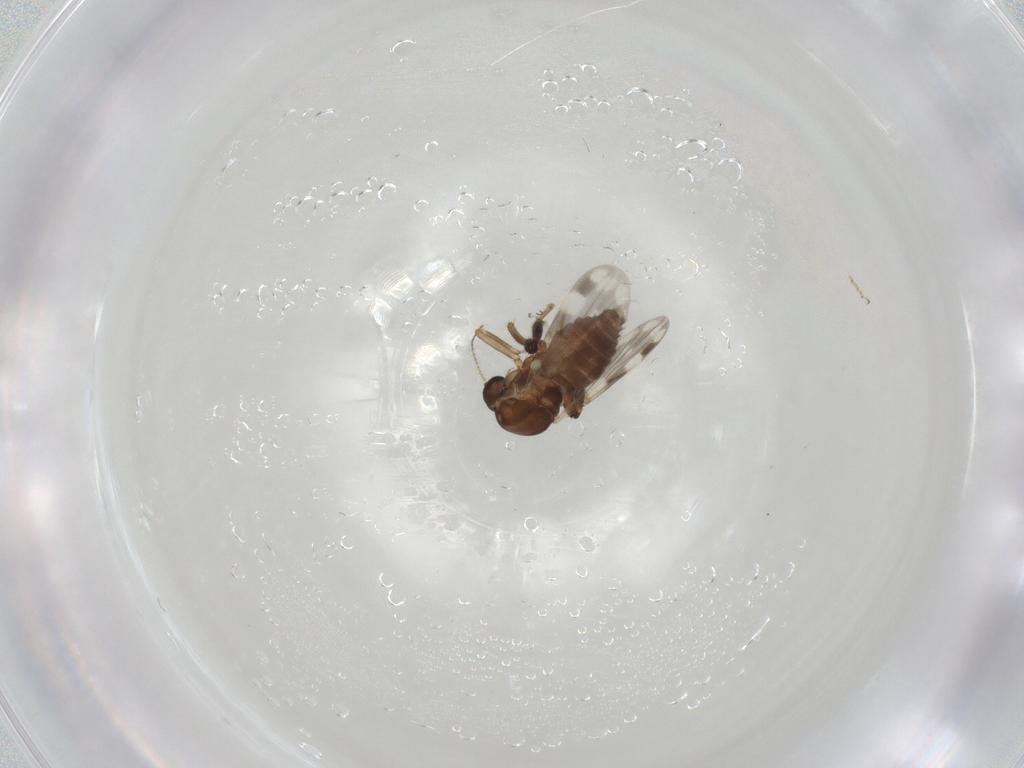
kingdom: Animalia
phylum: Arthropoda
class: Insecta
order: Diptera
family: Ceratopogonidae
